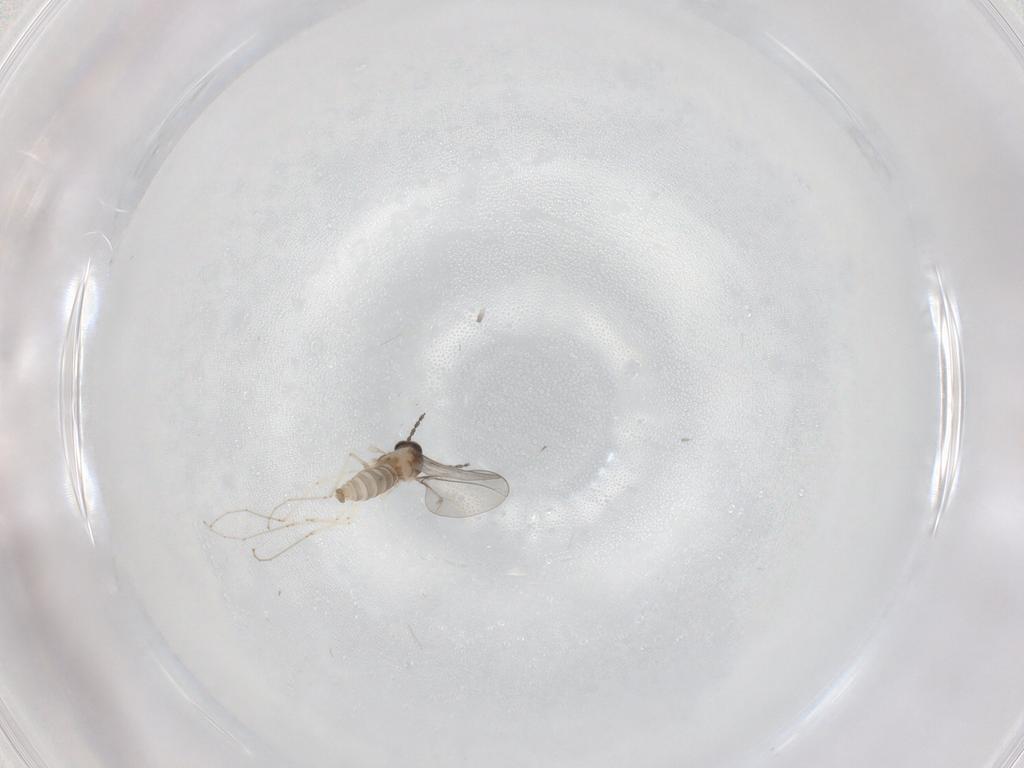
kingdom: Animalia
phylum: Arthropoda
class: Insecta
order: Diptera
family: Cecidomyiidae
